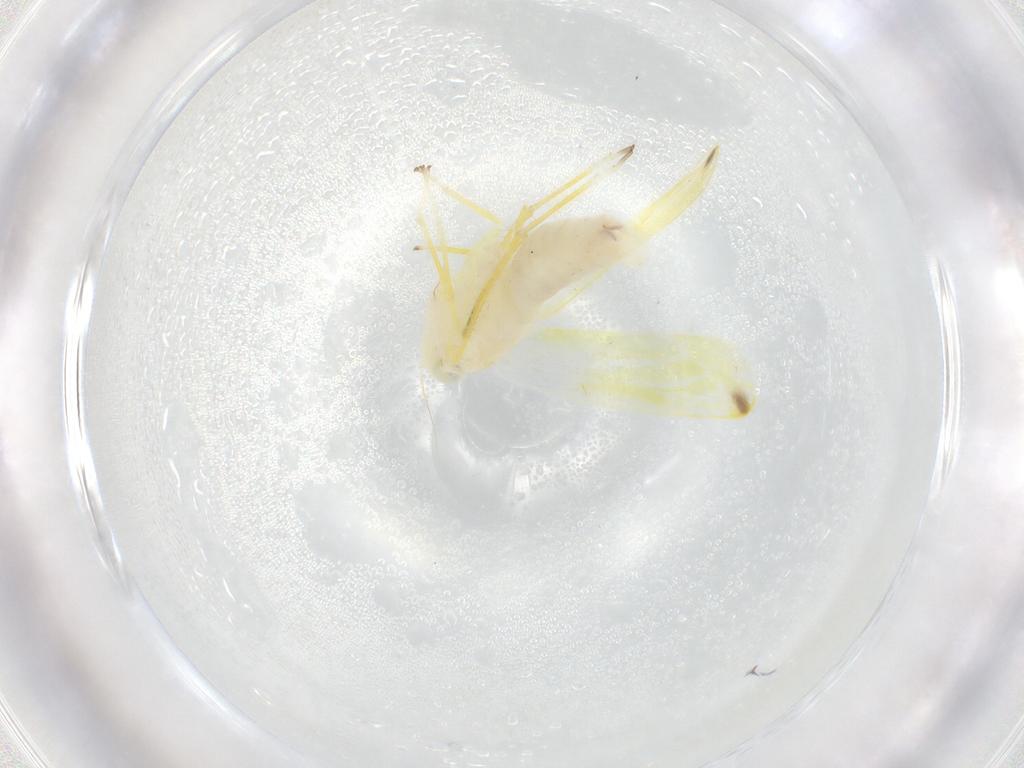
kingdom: Animalia
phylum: Arthropoda
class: Insecta
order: Hemiptera
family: Cicadellidae
